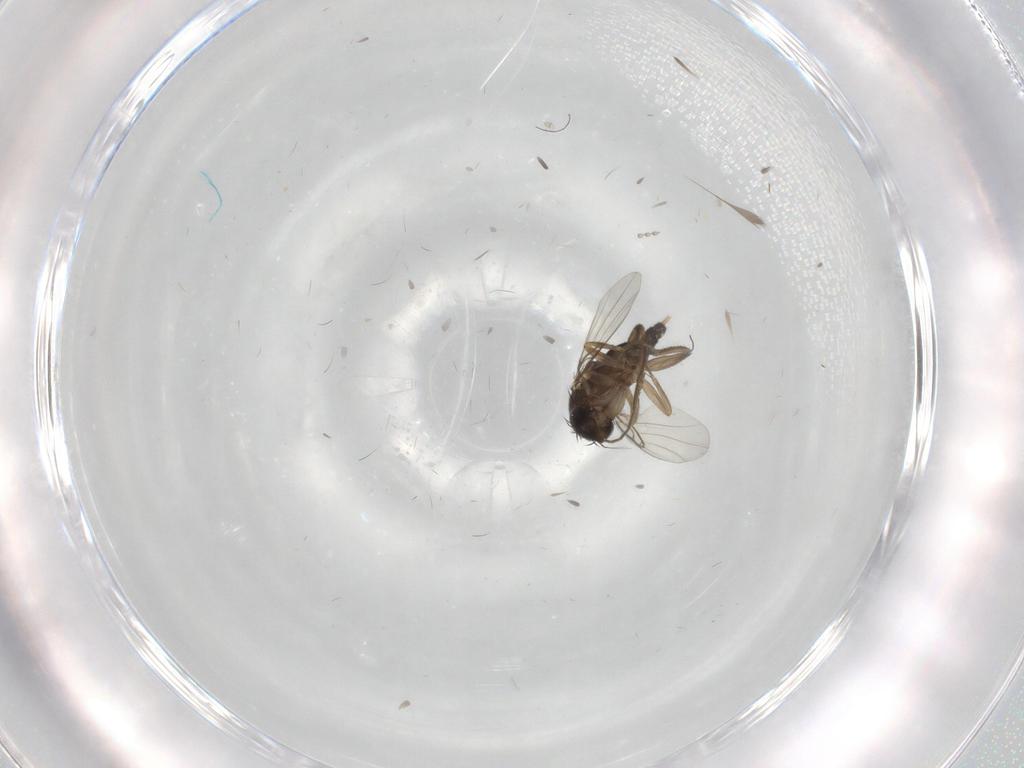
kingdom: Animalia
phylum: Arthropoda
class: Insecta
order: Diptera
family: Phoridae
